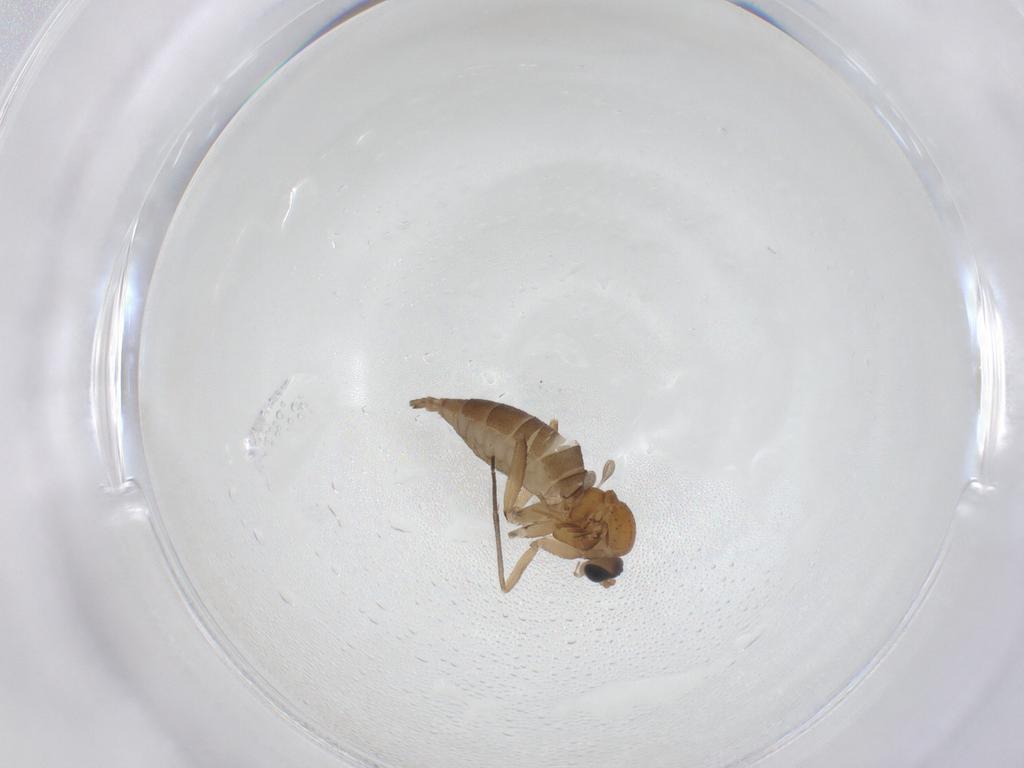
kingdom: Animalia
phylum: Arthropoda
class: Insecta
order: Diptera
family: Sciaridae
